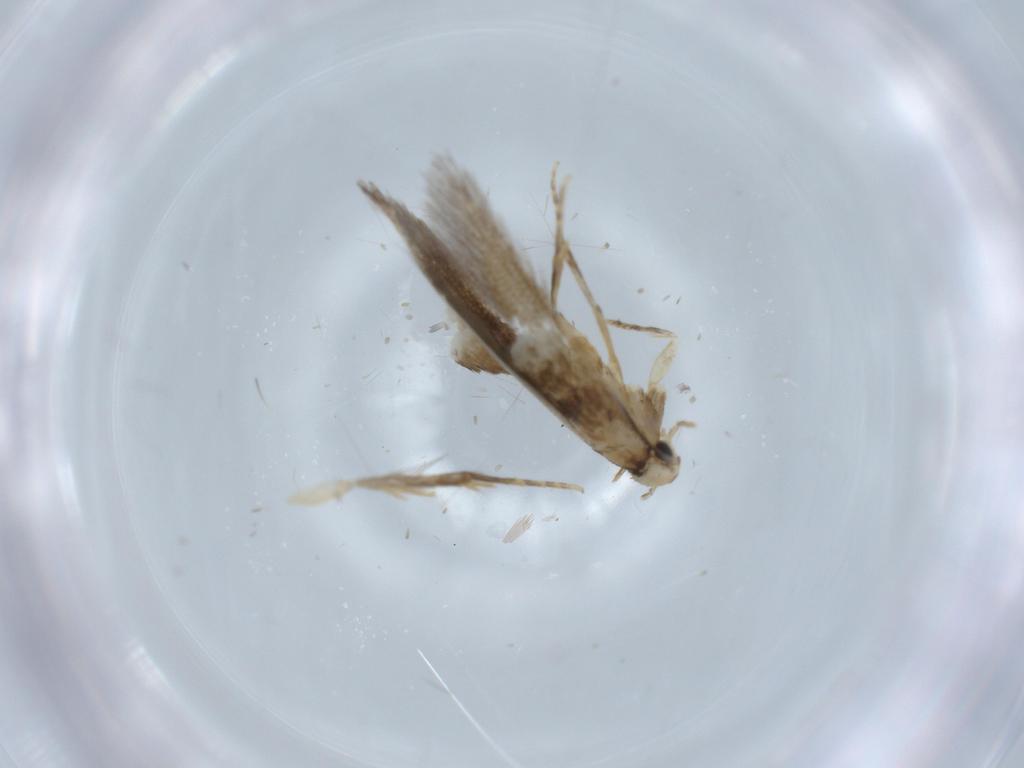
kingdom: Animalia
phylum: Arthropoda
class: Insecta
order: Lepidoptera
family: Tineidae
